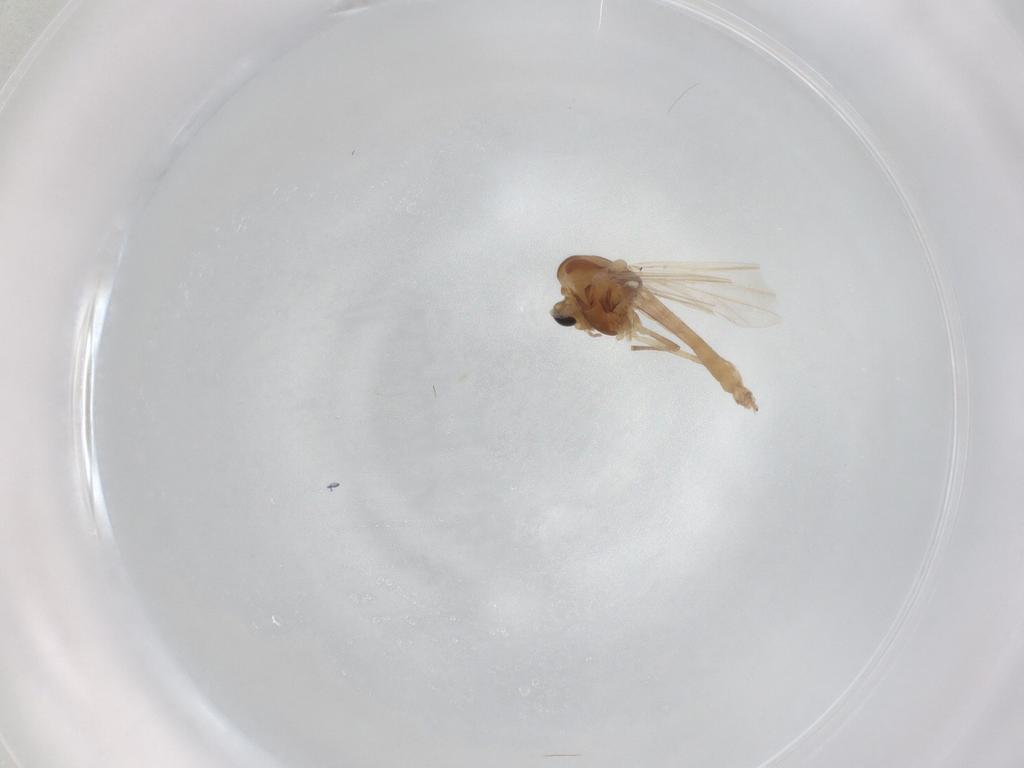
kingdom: Animalia
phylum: Arthropoda
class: Insecta
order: Diptera
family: Chironomidae
